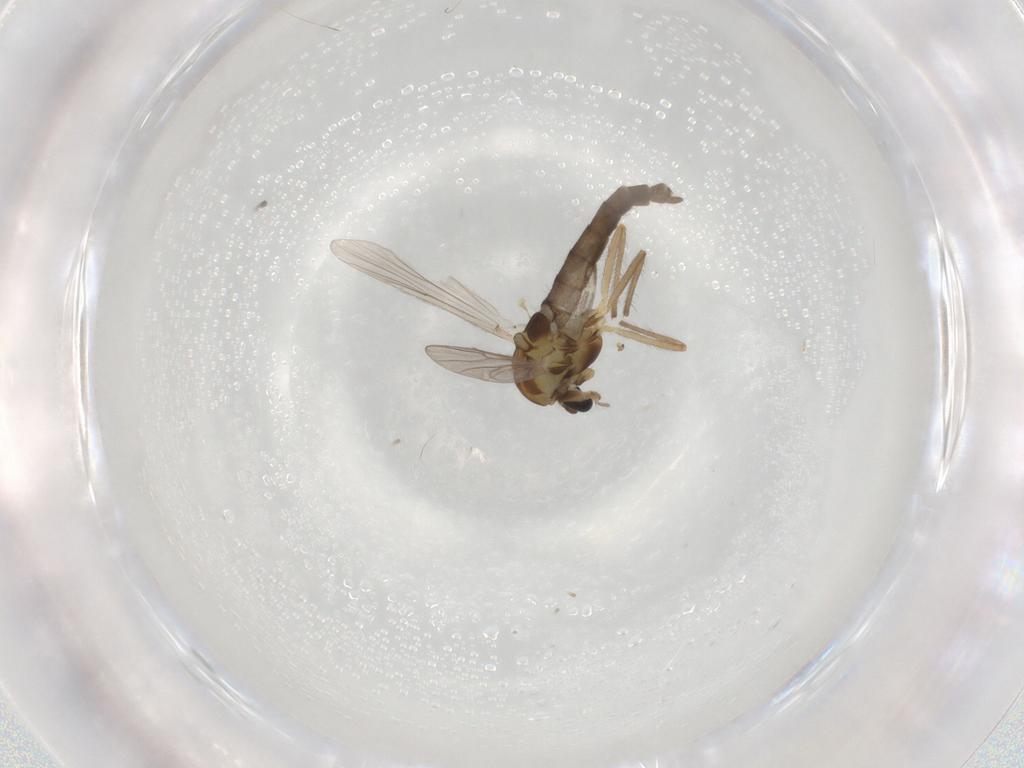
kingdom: Animalia
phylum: Arthropoda
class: Insecta
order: Diptera
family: Chironomidae
